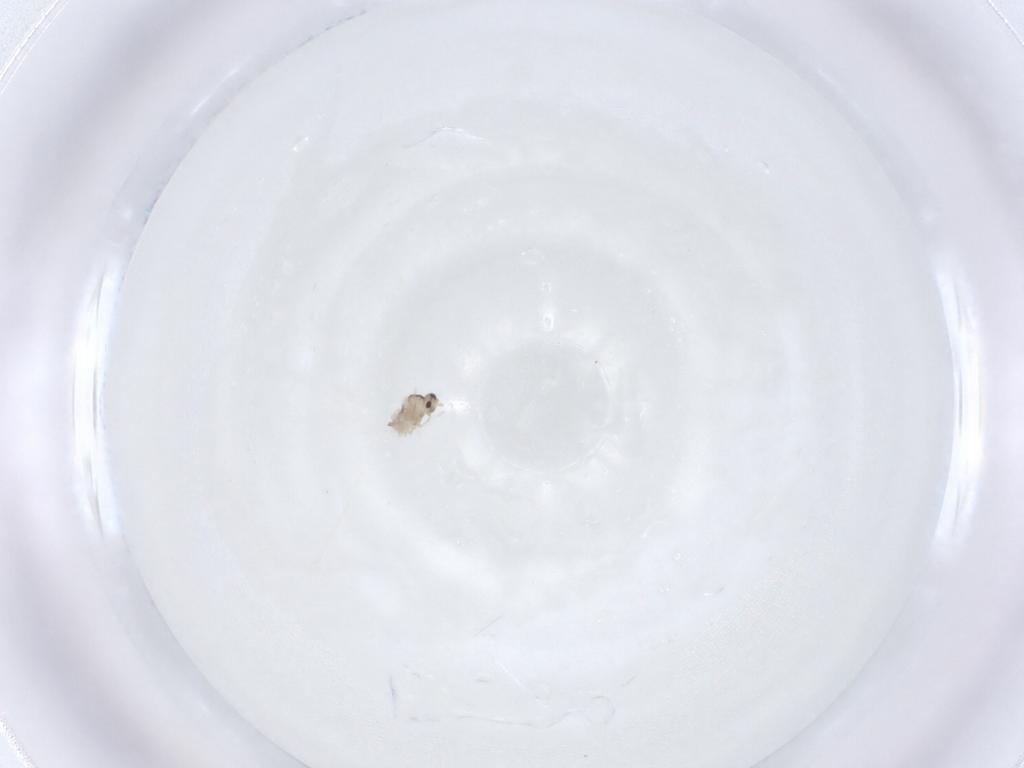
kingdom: Animalia
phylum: Arthropoda
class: Insecta
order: Diptera
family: Cecidomyiidae
